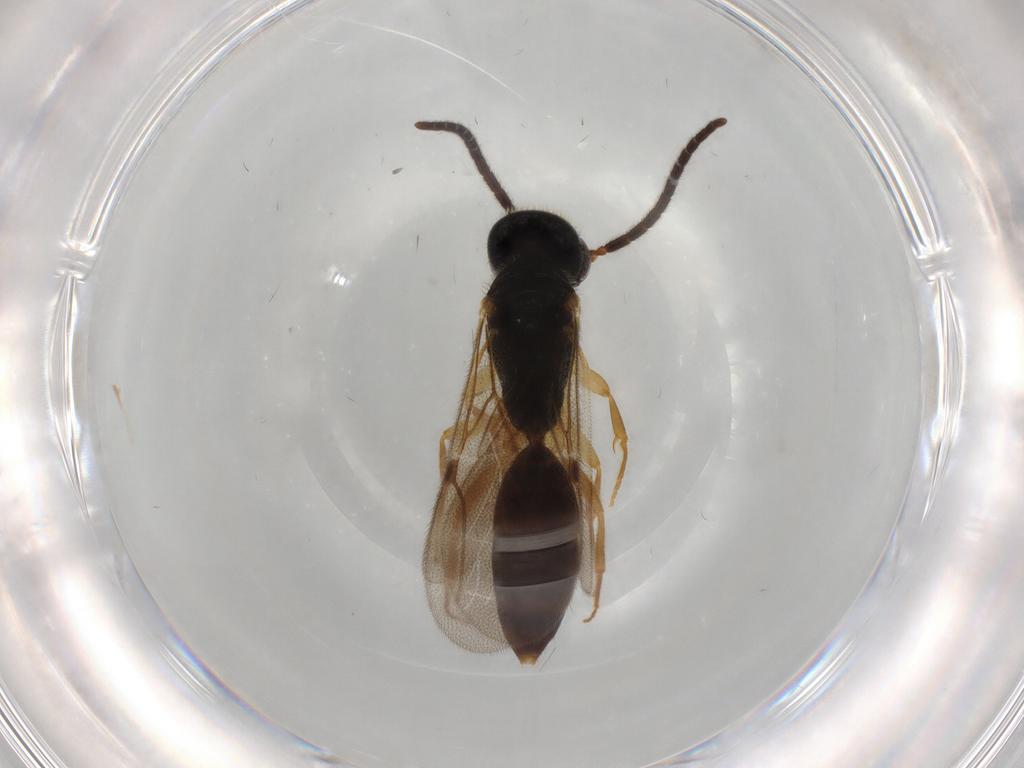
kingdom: Animalia
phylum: Arthropoda
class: Insecta
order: Hymenoptera
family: Bethylidae
